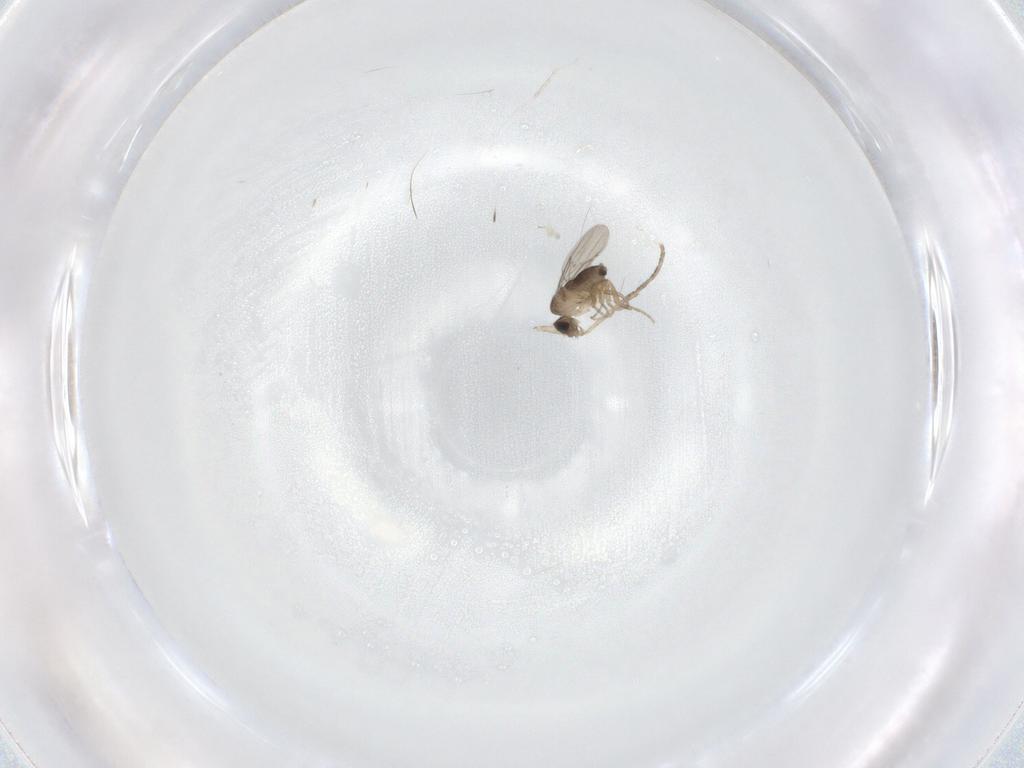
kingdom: Animalia
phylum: Arthropoda
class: Insecta
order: Diptera
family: Phoridae
